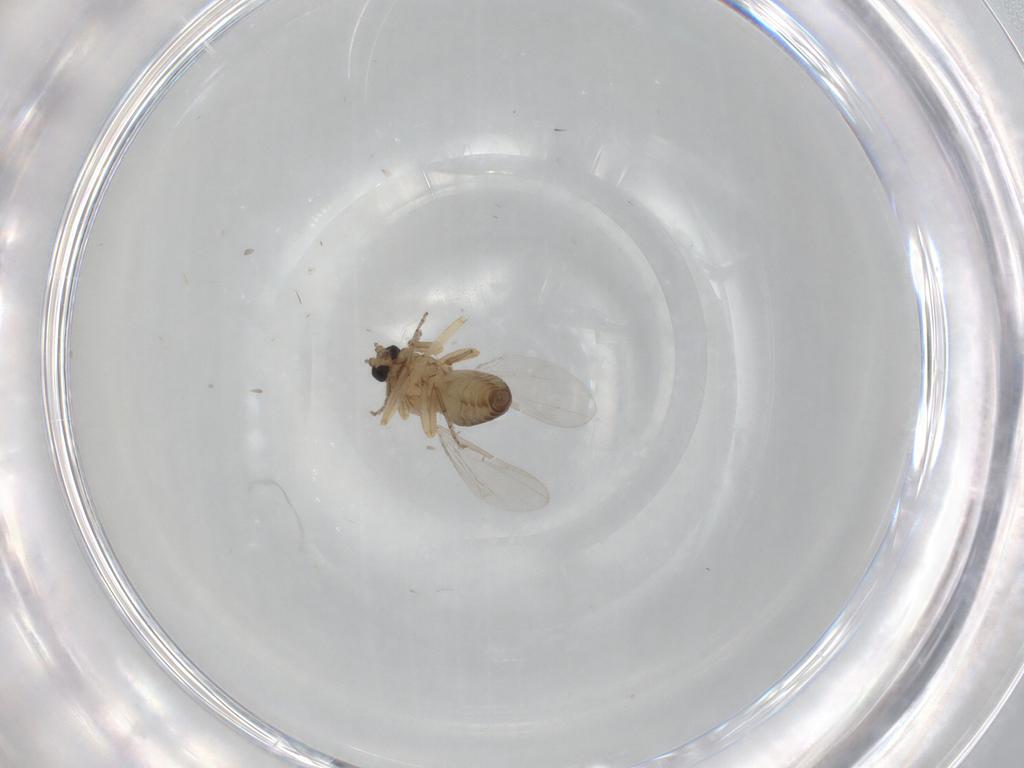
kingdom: Animalia
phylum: Arthropoda
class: Insecta
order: Diptera
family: Ceratopogonidae
